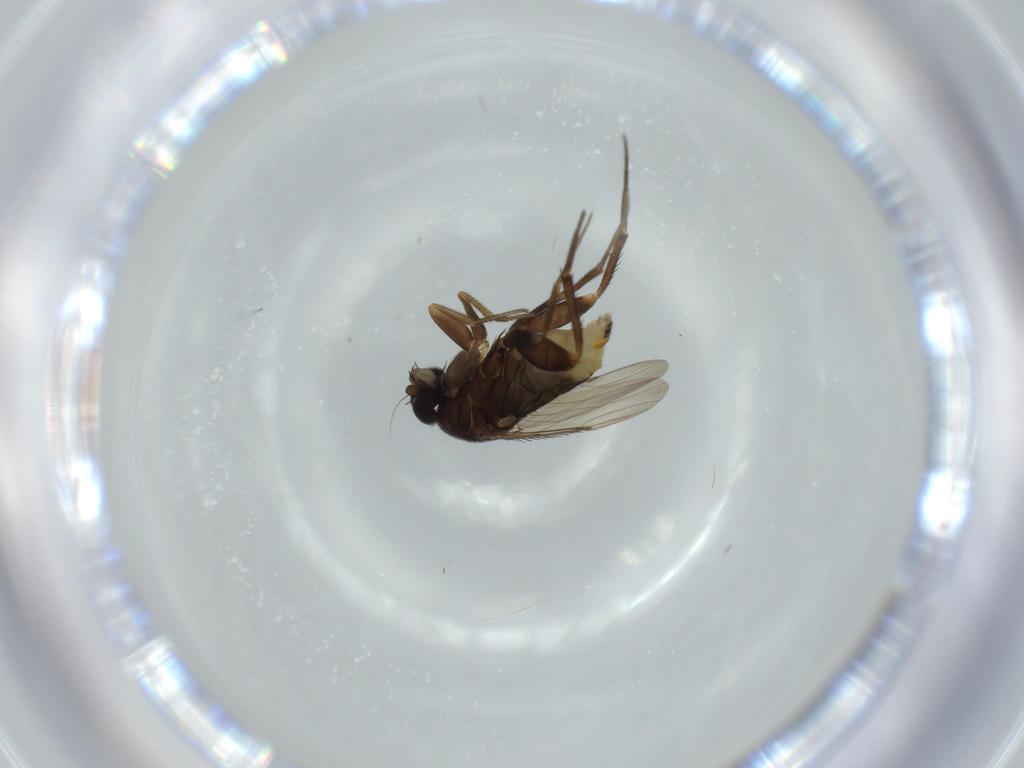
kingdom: Animalia
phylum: Arthropoda
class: Insecta
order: Diptera
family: Phoridae
